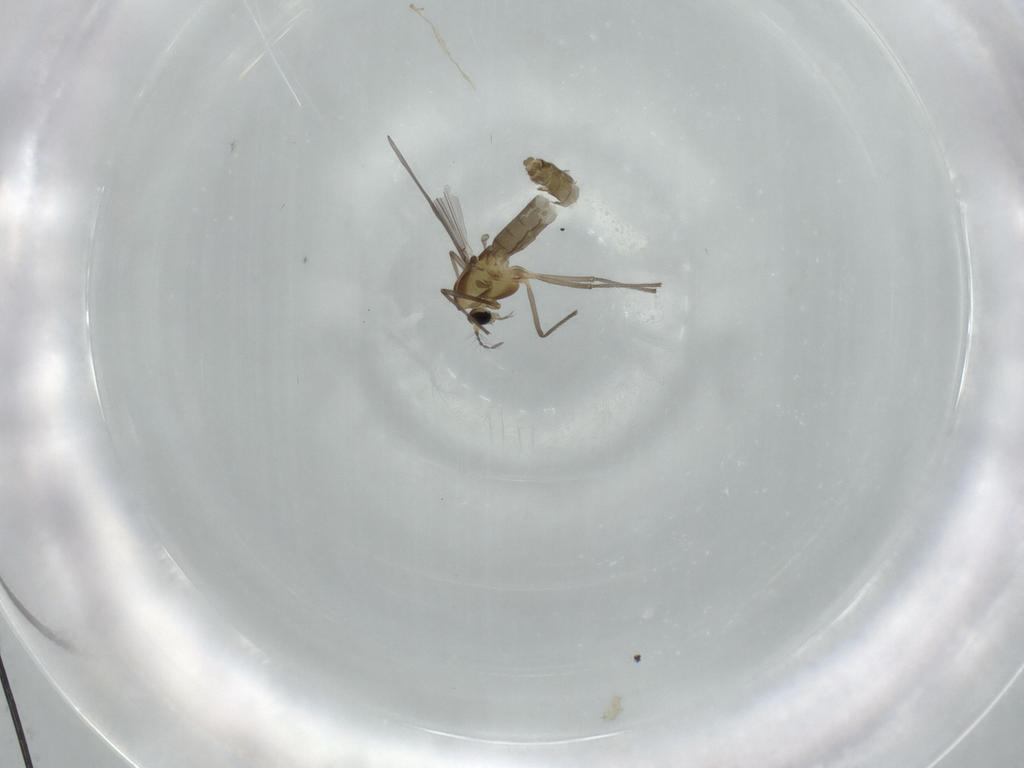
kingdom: Animalia
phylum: Arthropoda
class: Insecta
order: Diptera
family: Chironomidae
